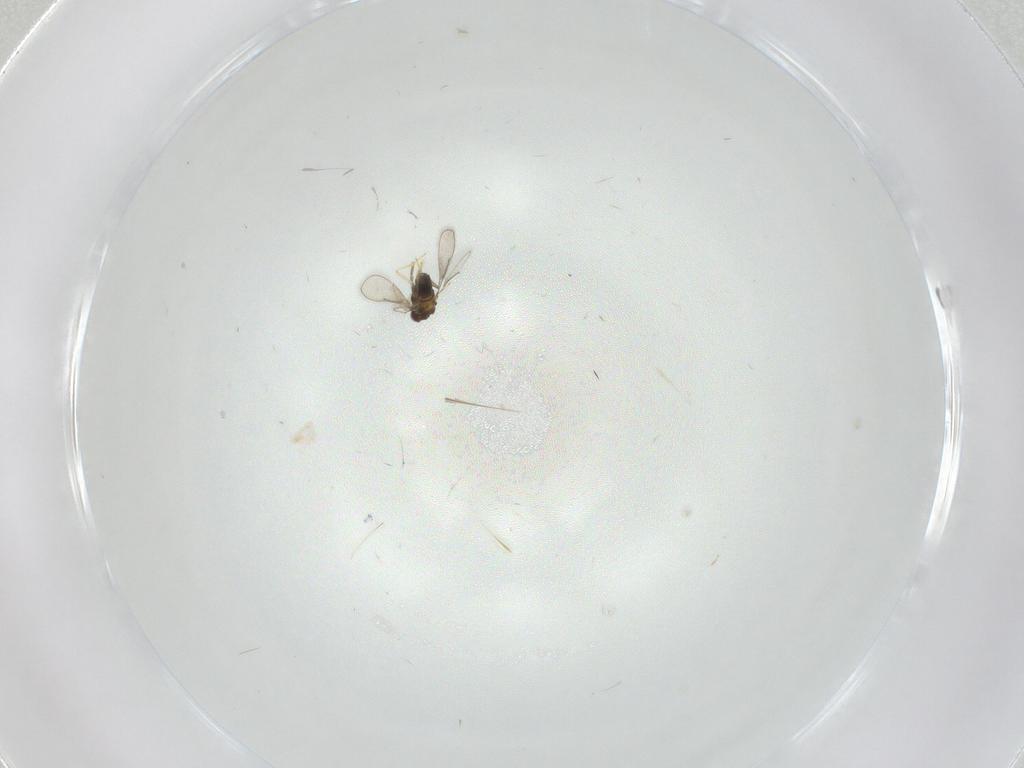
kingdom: Animalia
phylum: Arthropoda
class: Insecta
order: Hymenoptera
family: Aphelinidae
